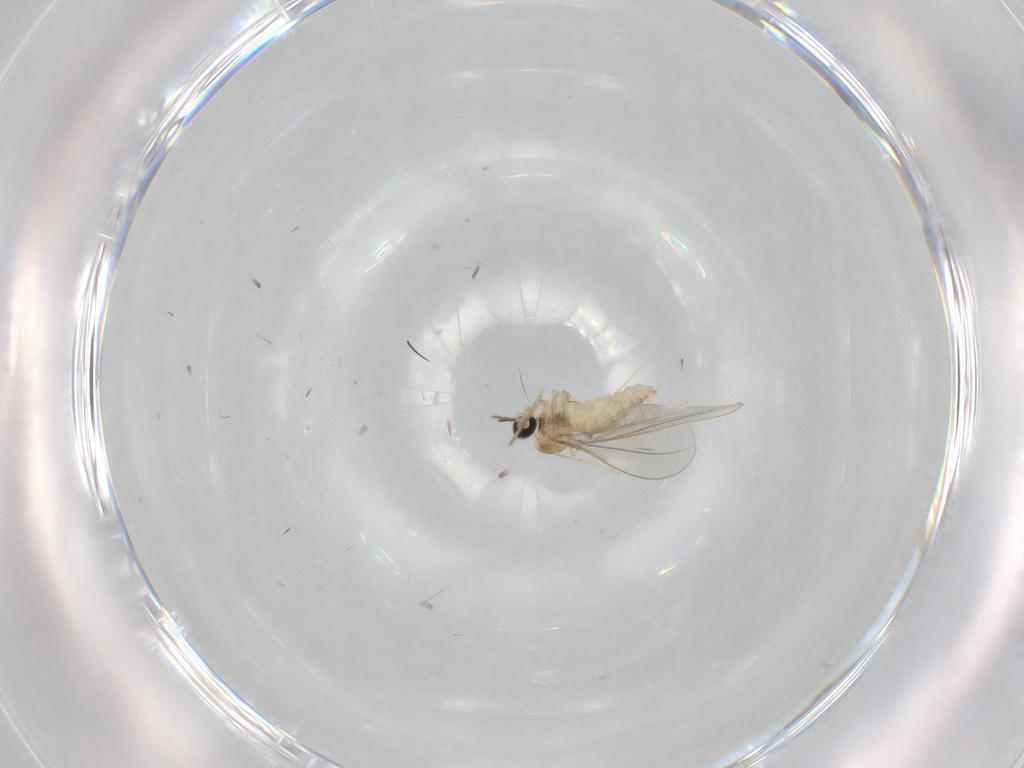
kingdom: Animalia
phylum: Arthropoda
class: Insecta
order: Diptera
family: Cecidomyiidae
